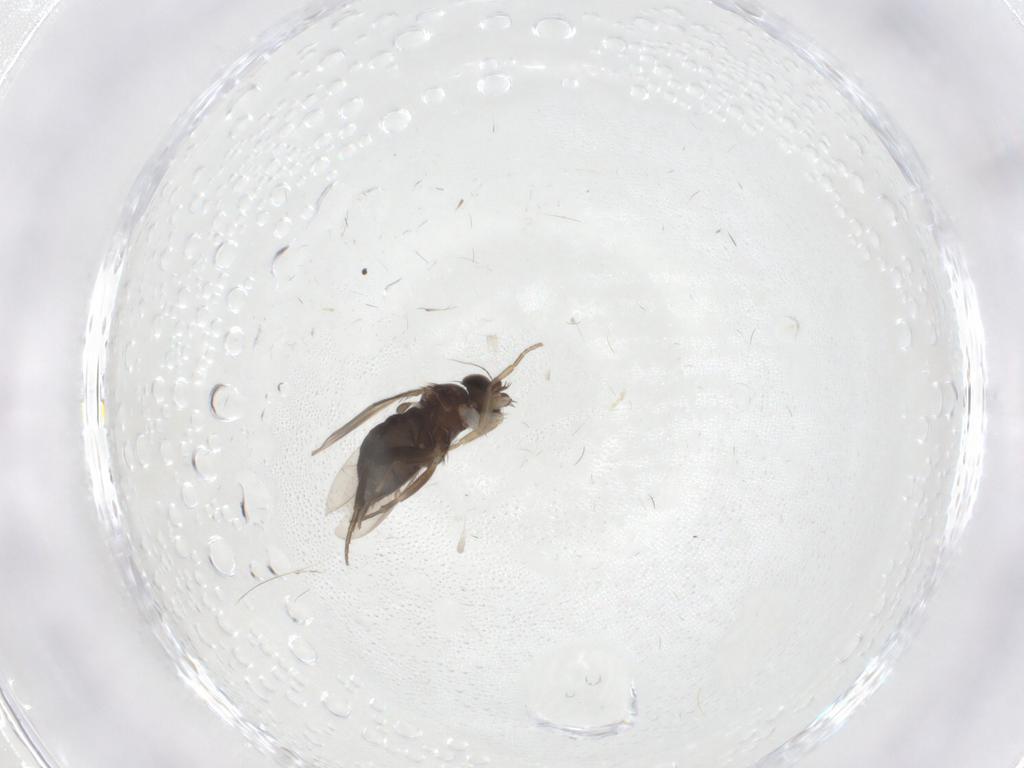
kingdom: Animalia
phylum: Arthropoda
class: Insecta
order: Diptera
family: Phoridae
